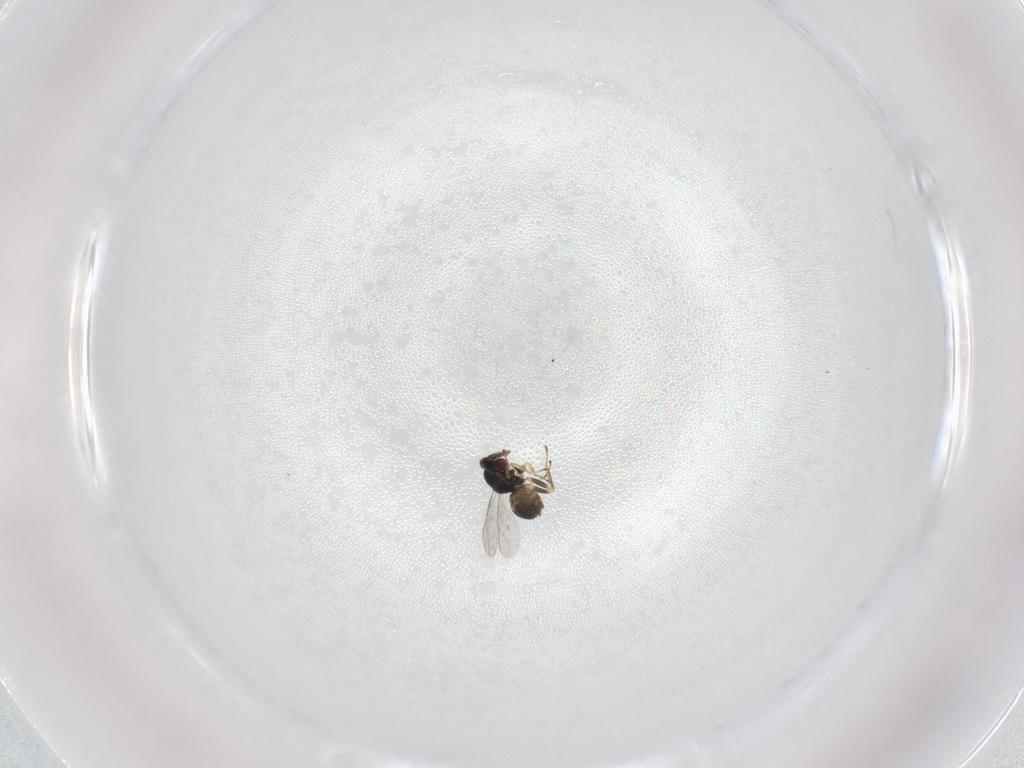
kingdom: Animalia
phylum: Arthropoda
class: Insecta
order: Hymenoptera
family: Eulophidae
